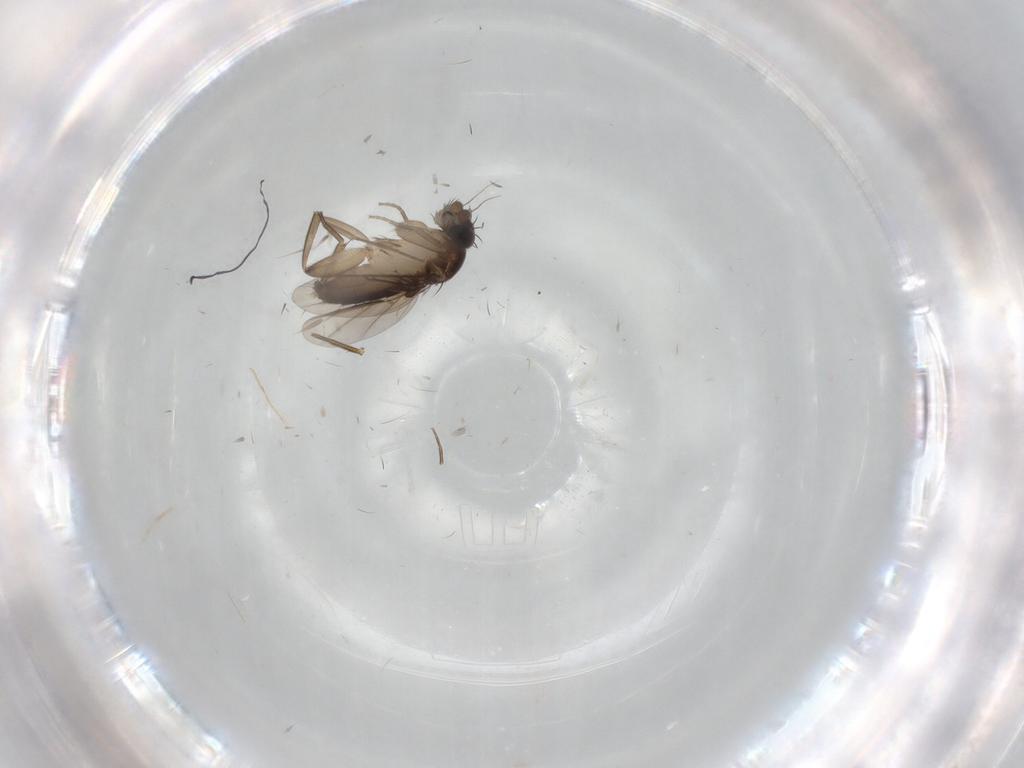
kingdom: Animalia
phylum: Arthropoda
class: Insecta
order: Diptera
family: Phoridae
